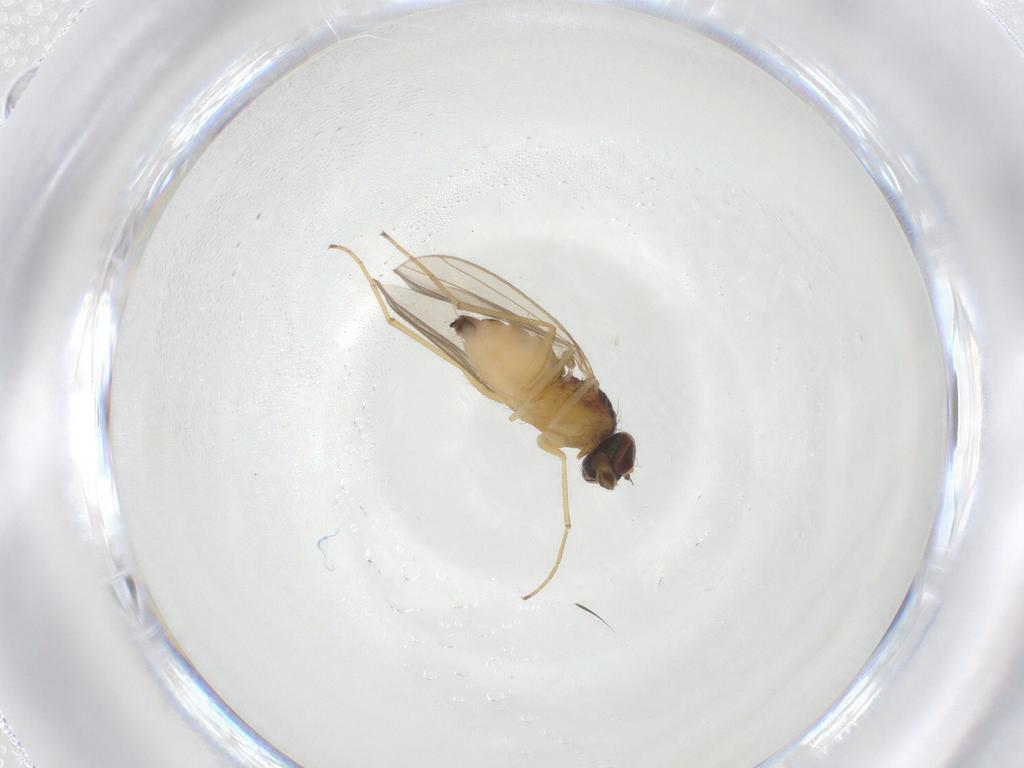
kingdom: Animalia
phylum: Arthropoda
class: Insecta
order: Diptera
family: Dolichopodidae
